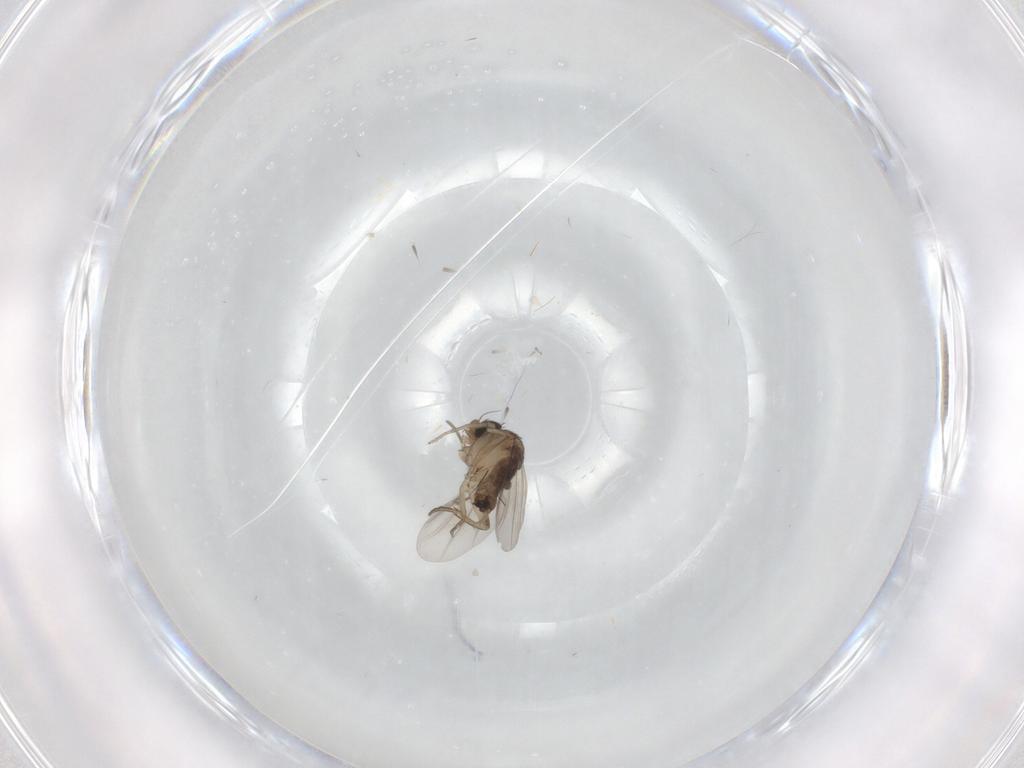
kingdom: Animalia
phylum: Arthropoda
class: Insecta
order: Diptera
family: Phoridae
